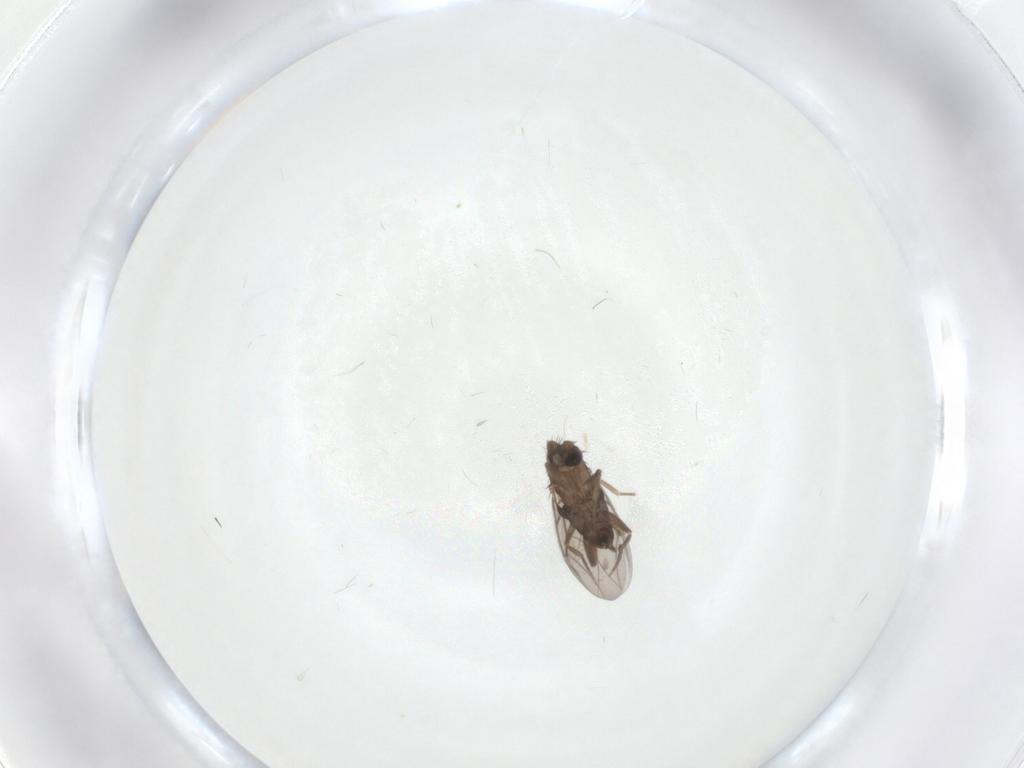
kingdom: Animalia
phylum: Arthropoda
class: Insecta
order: Diptera
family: Phoridae
